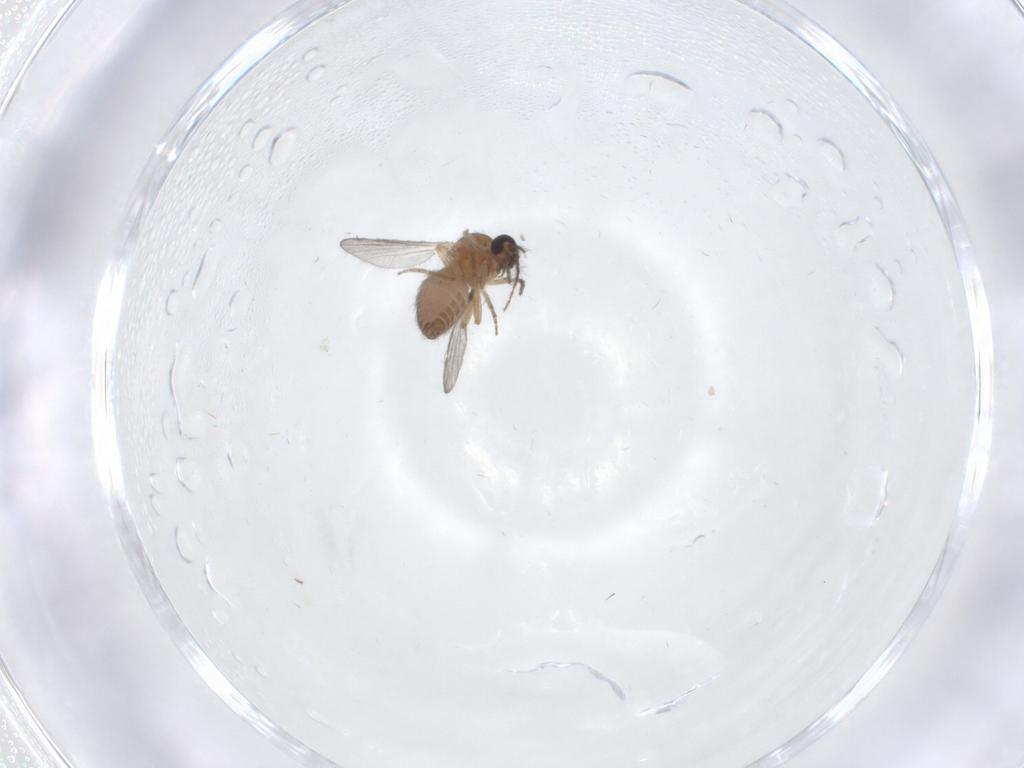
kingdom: Animalia
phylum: Arthropoda
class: Insecta
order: Diptera
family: Ceratopogonidae
